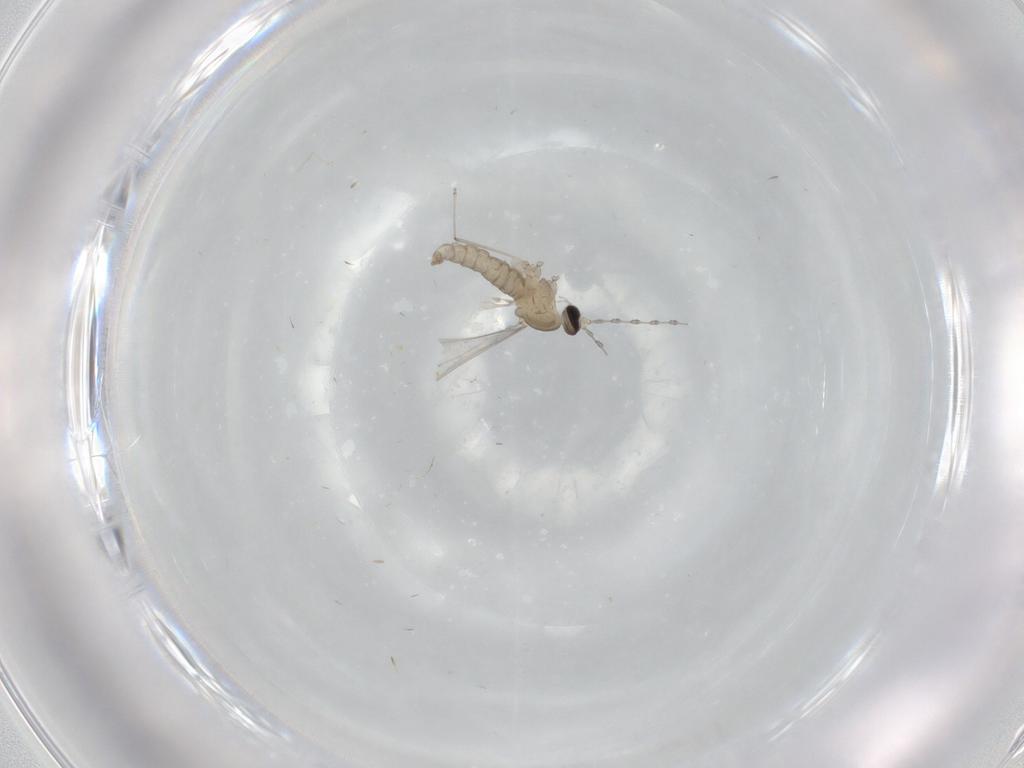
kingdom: Animalia
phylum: Arthropoda
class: Insecta
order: Diptera
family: Cecidomyiidae
